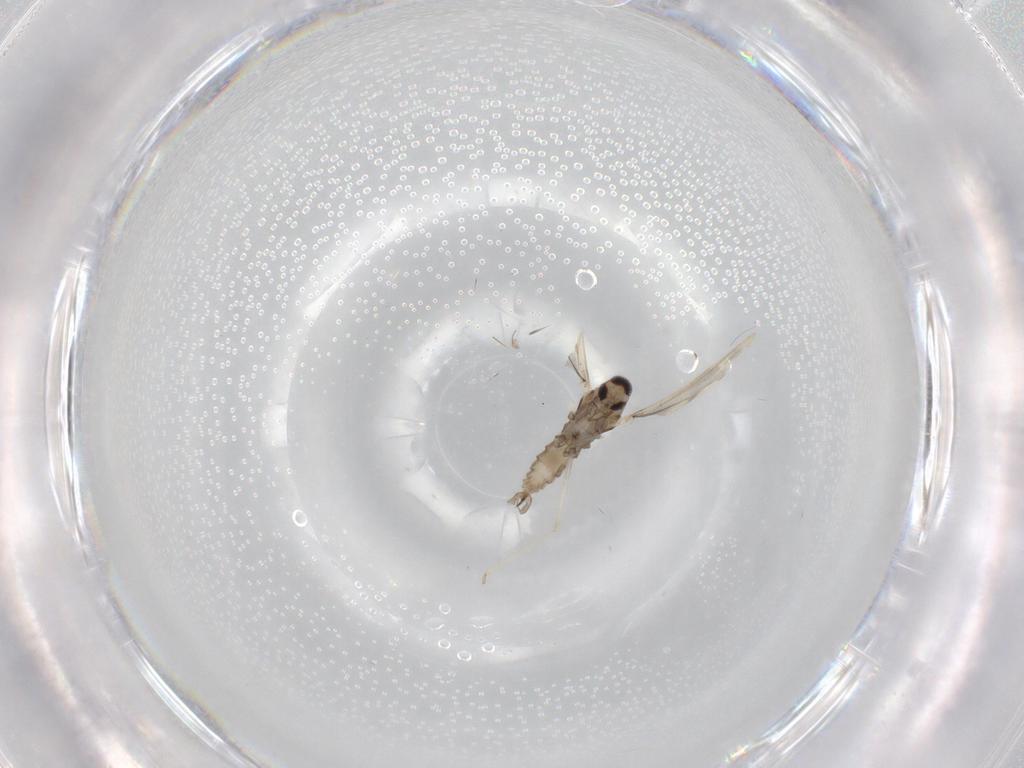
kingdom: Animalia
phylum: Arthropoda
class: Insecta
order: Diptera
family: Cecidomyiidae
